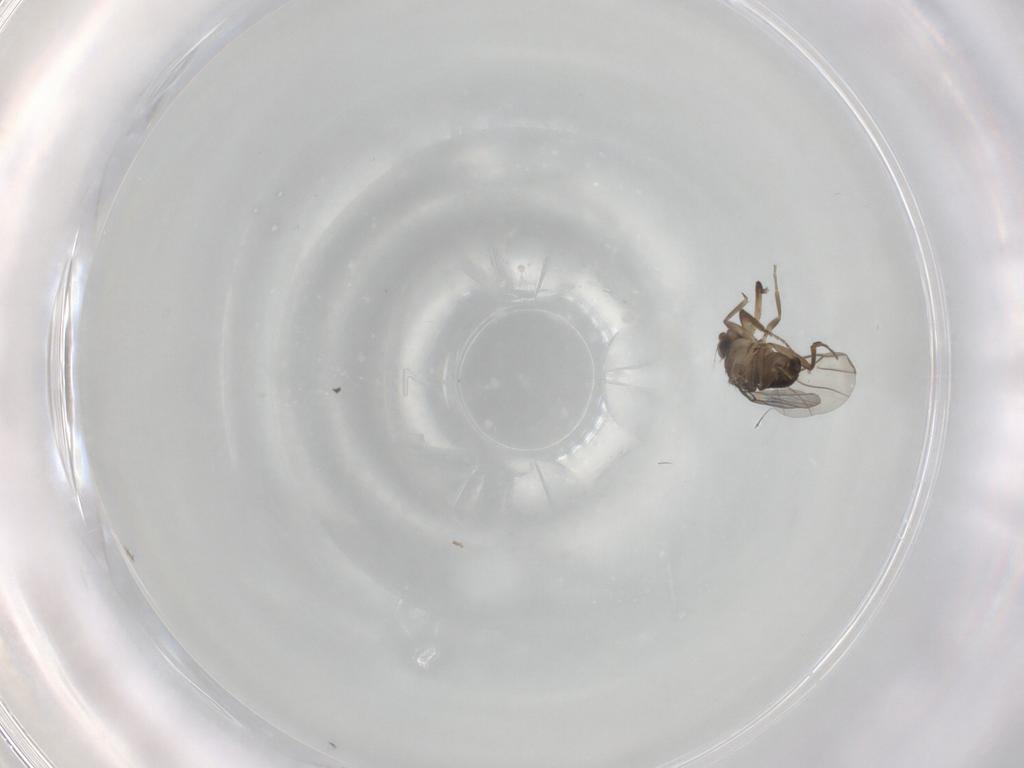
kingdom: Animalia
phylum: Arthropoda
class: Insecta
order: Diptera
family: Phoridae
